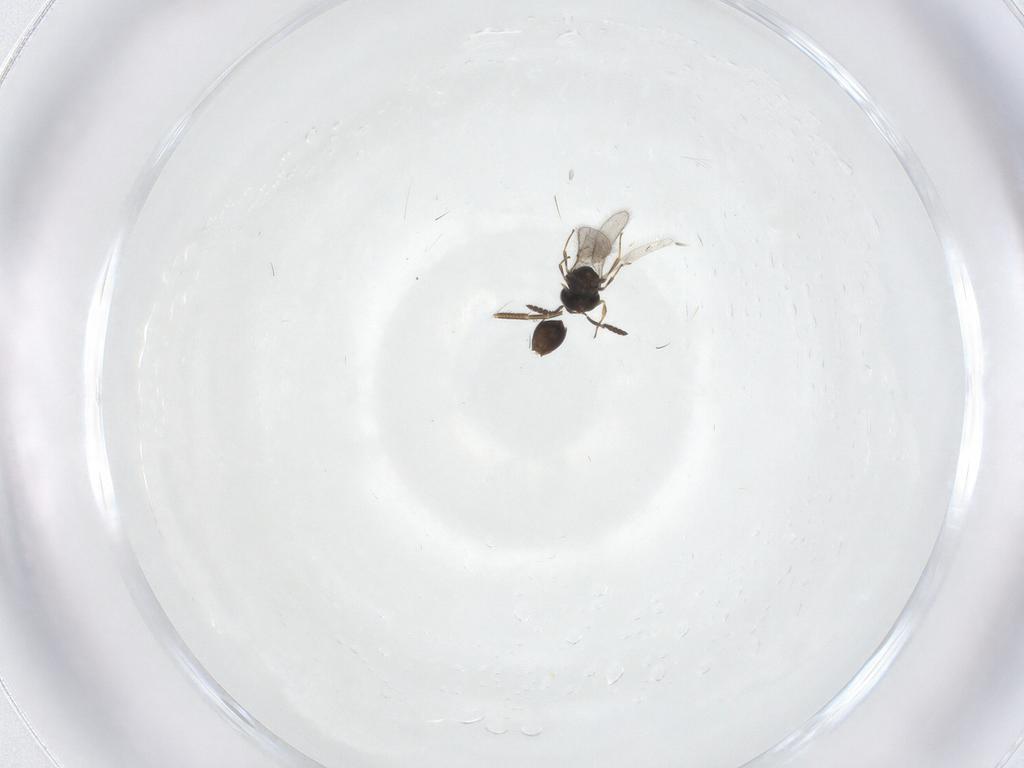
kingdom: Animalia
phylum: Arthropoda
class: Insecta
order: Hymenoptera
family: Scelionidae
